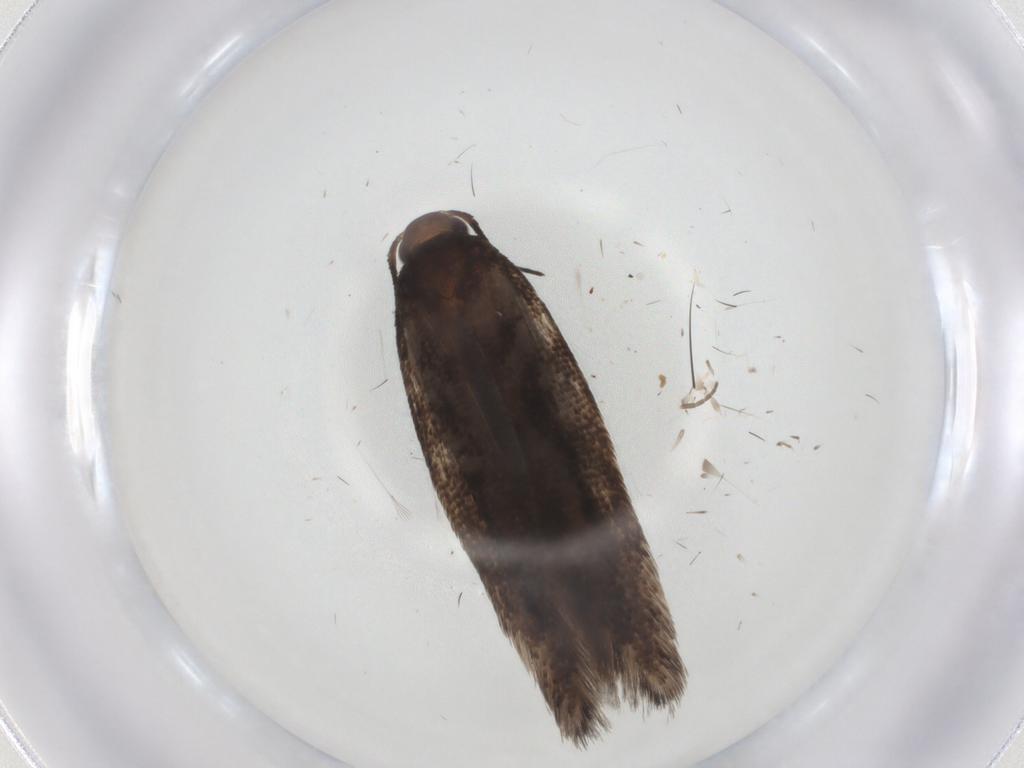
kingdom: Animalia
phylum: Arthropoda
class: Insecta
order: Lepidoptera
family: Gelechiidae
